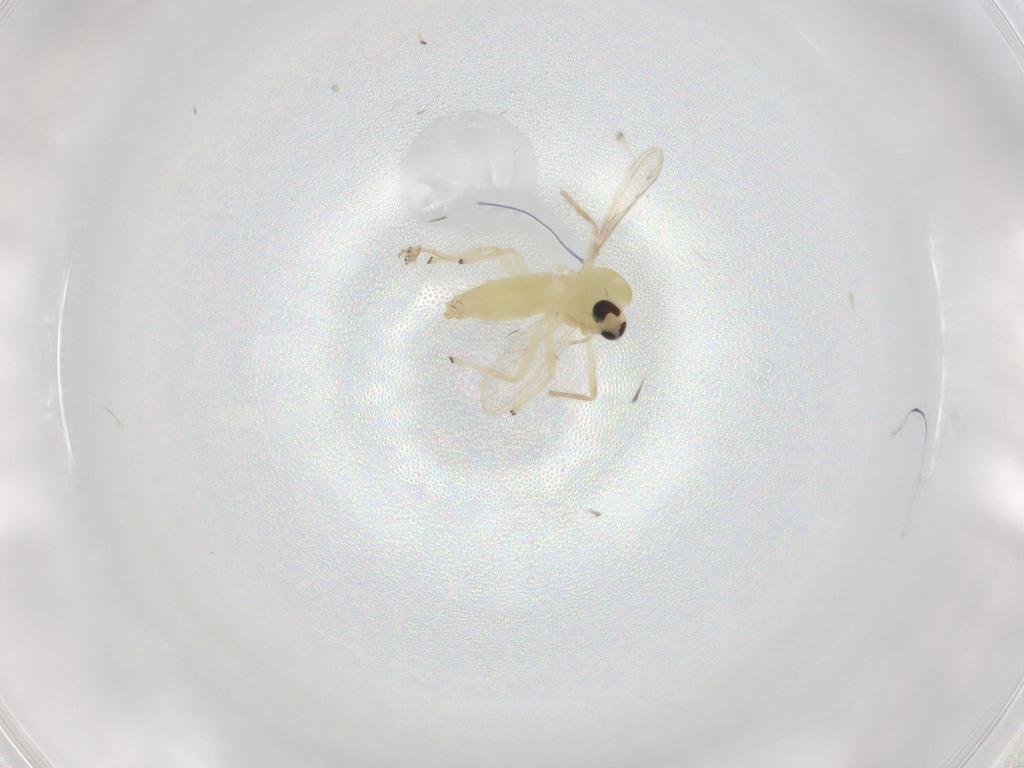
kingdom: Animalia
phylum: Arthropoda
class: Insecta
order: Diptera
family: Chironomidae
